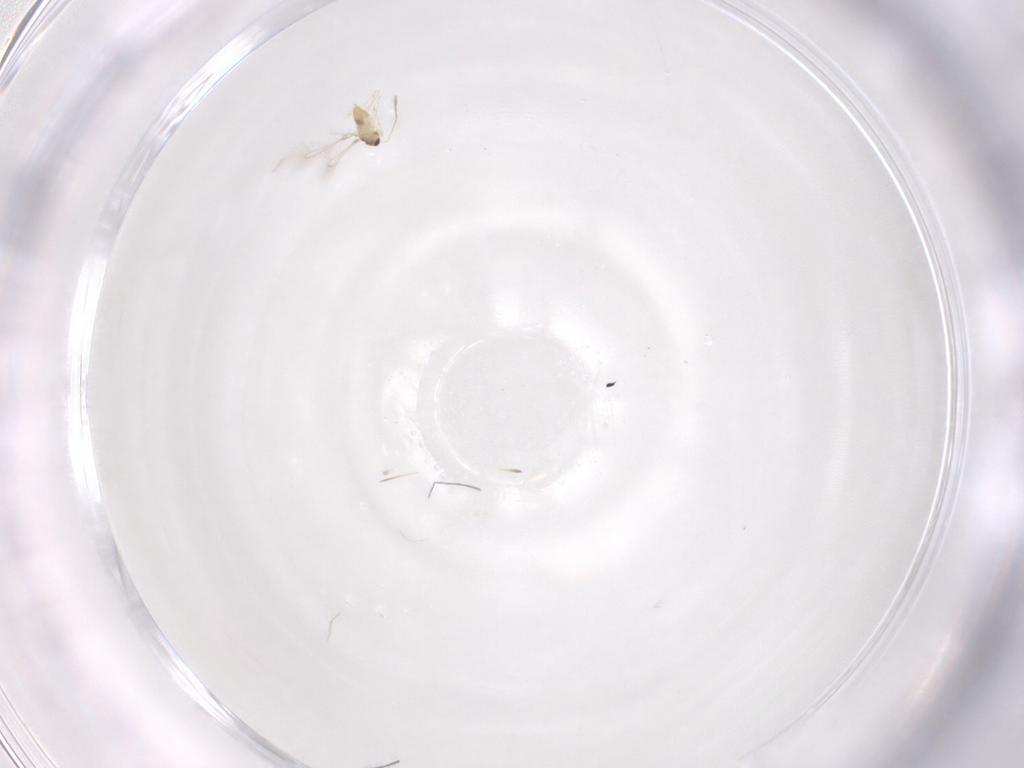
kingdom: Animalia
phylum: Arthropoda
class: Insecta
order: Hymenoptera
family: Mymaridae
